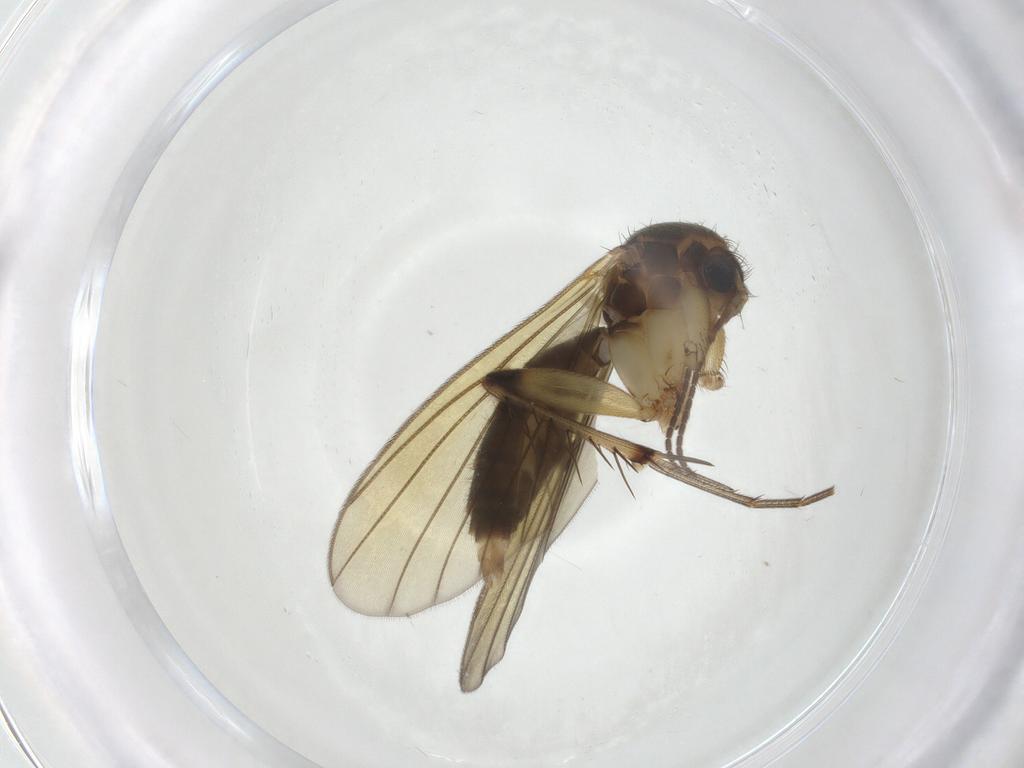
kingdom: Animalia
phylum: Arthropoda
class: Insecta
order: Diptera
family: Mycetophilidae
